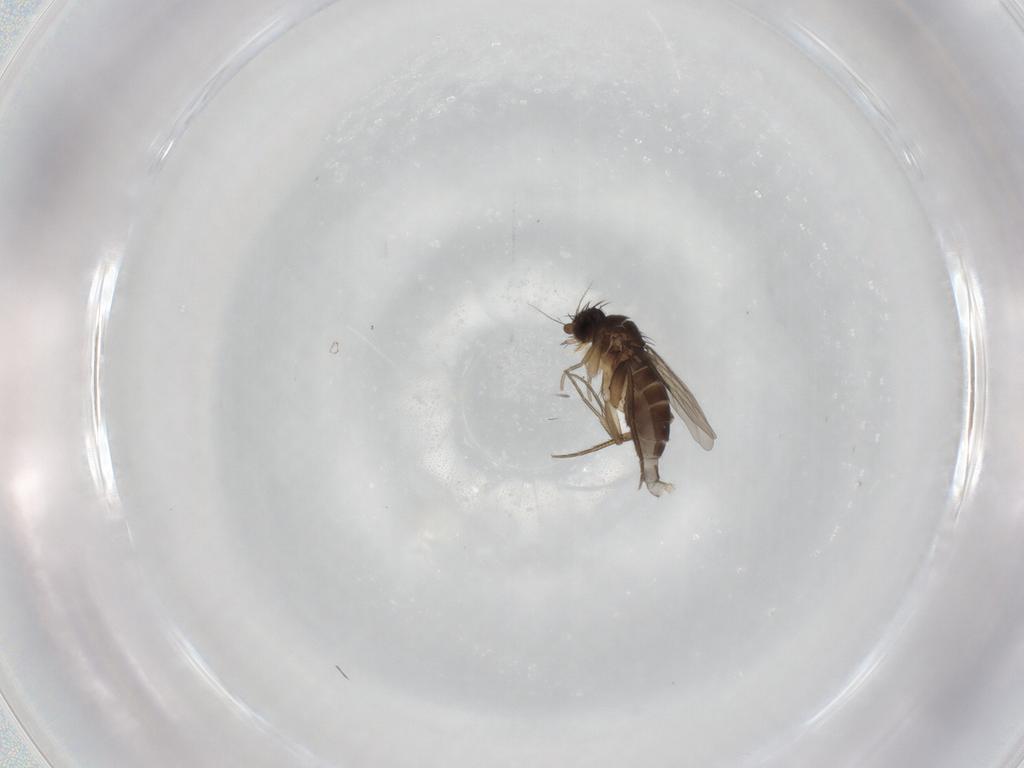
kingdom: Animalia
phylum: Arthropoda
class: Insecta
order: Diptera
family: Phoridae
